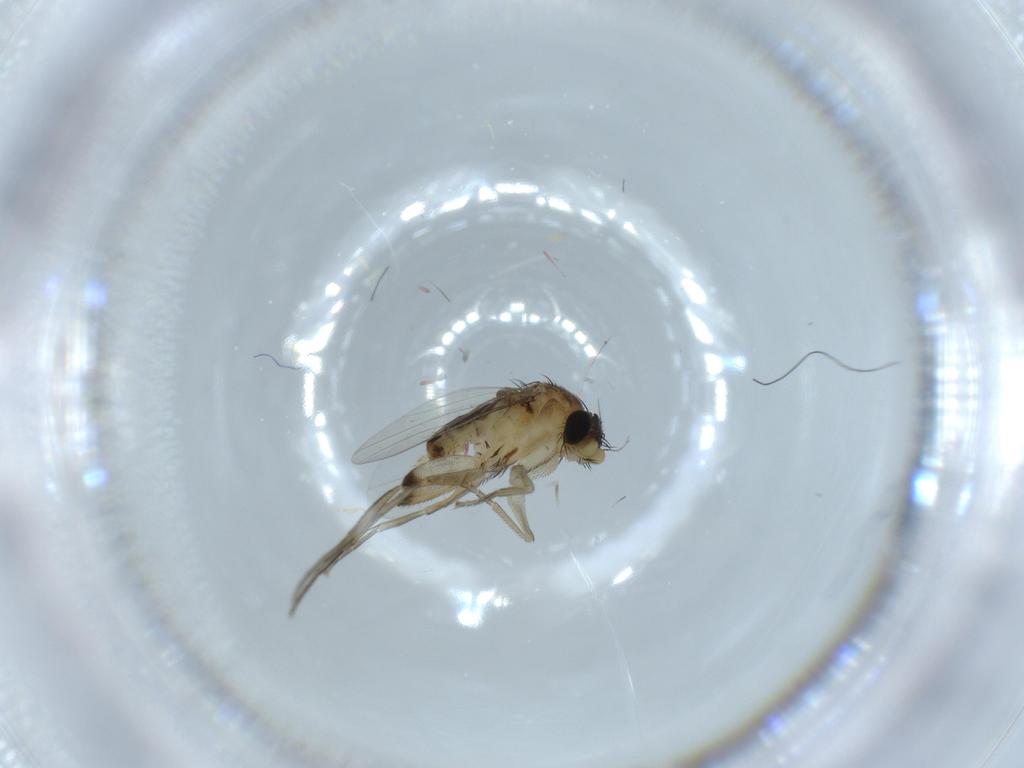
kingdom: Animalia
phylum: Arthropoda
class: Insecta
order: Diptera
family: Phoridae
